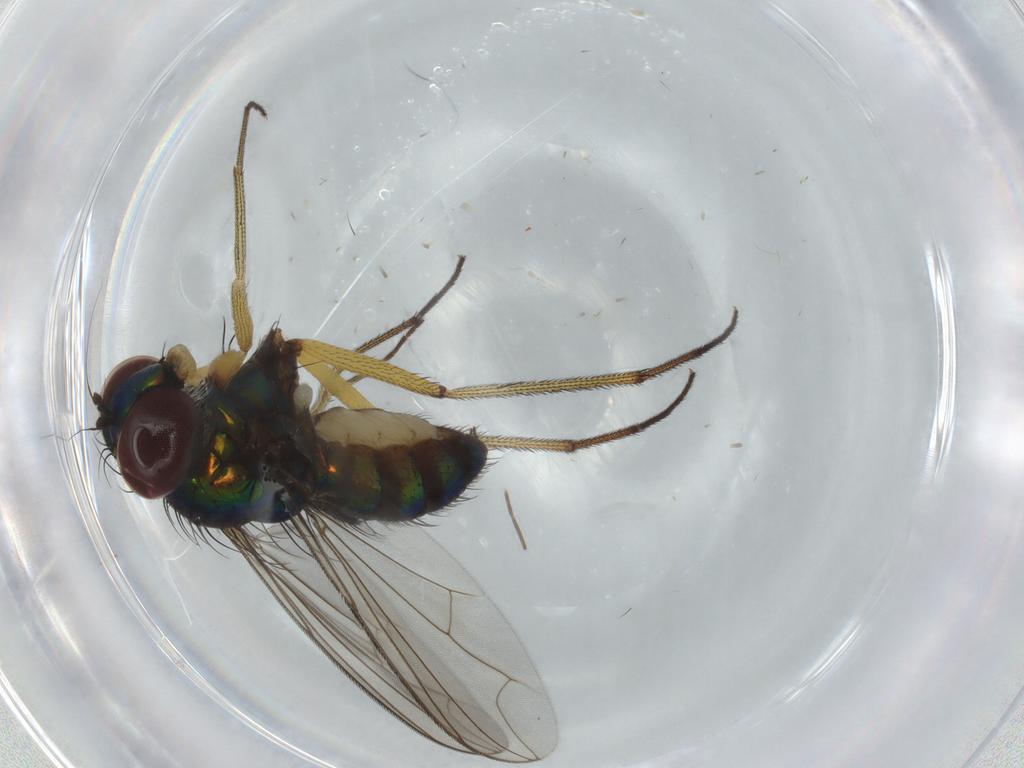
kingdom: Animalia
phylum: Arthropoda
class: Insecta
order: Diptera
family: Dolichopodidae
